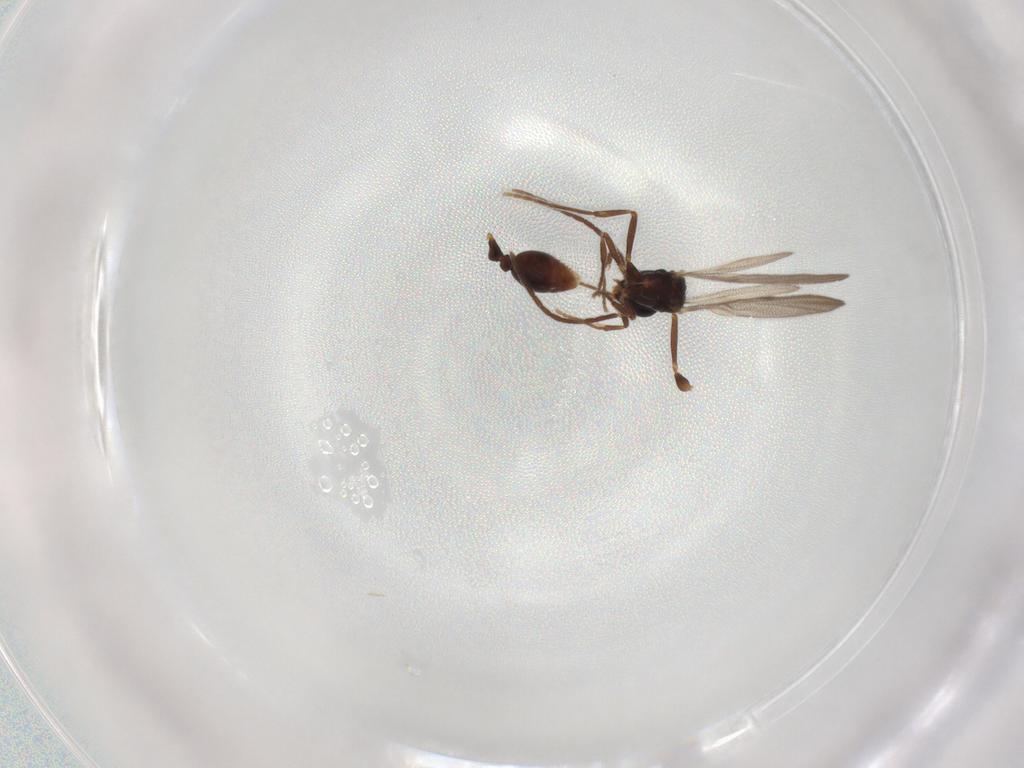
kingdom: Animalia
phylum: Arthropoda
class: Insecta
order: Hymenoptera
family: Formicidae
